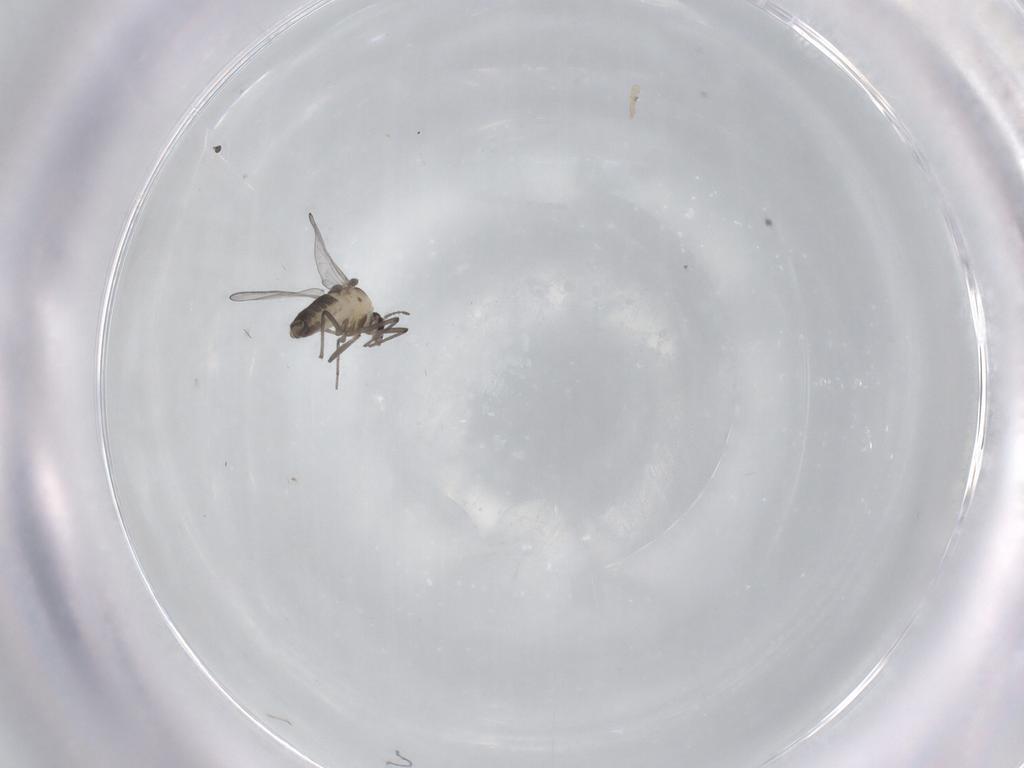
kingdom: Animalia
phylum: Arthropoda
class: Insecta
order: Diptera
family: Chironomidae
